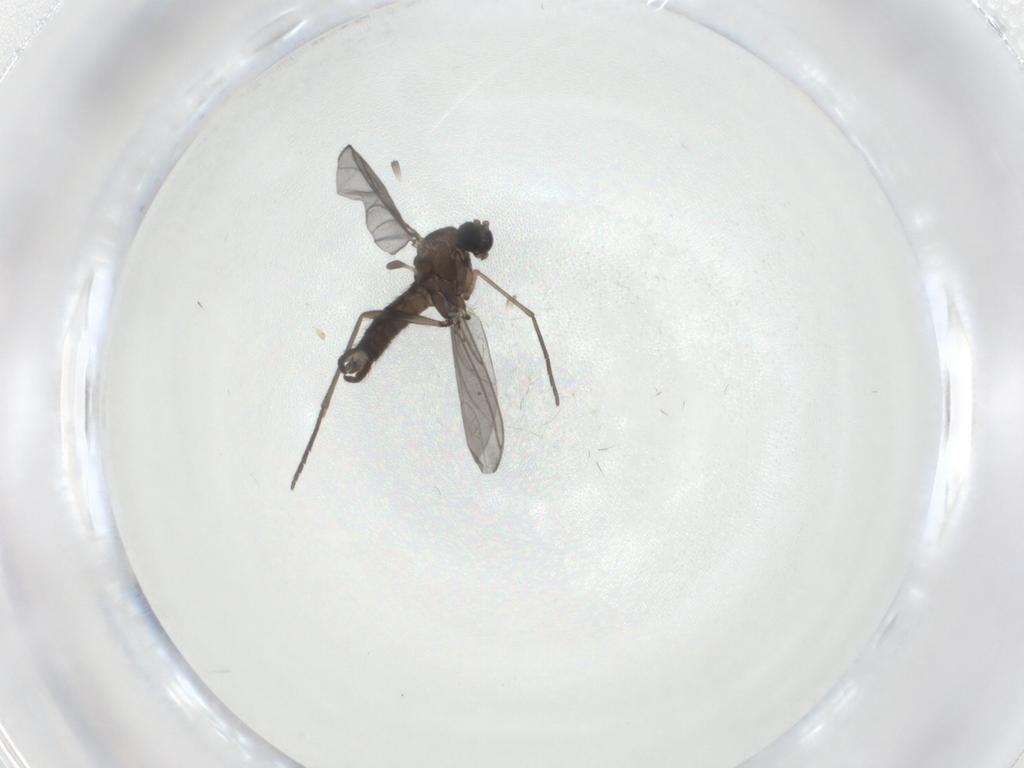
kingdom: Animalia
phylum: Arthropoda
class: Insecta
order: Diptera
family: Sciaridae
